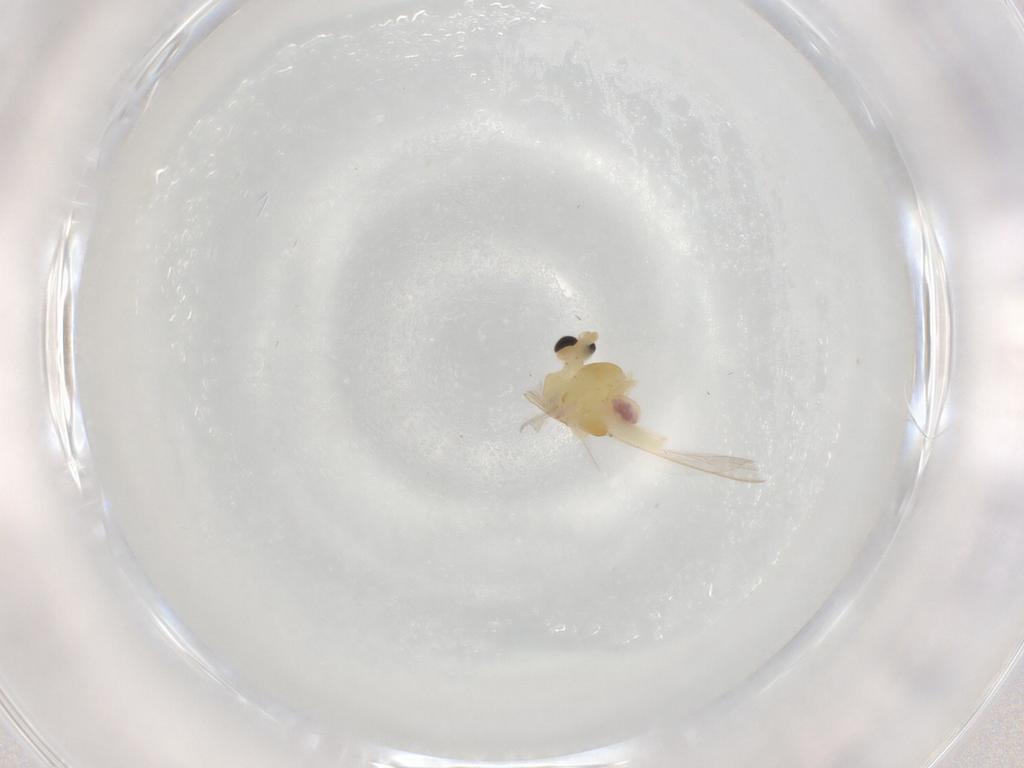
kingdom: Animalia
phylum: Arthropoda
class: Insecta
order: Diptera
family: Chironomidae
